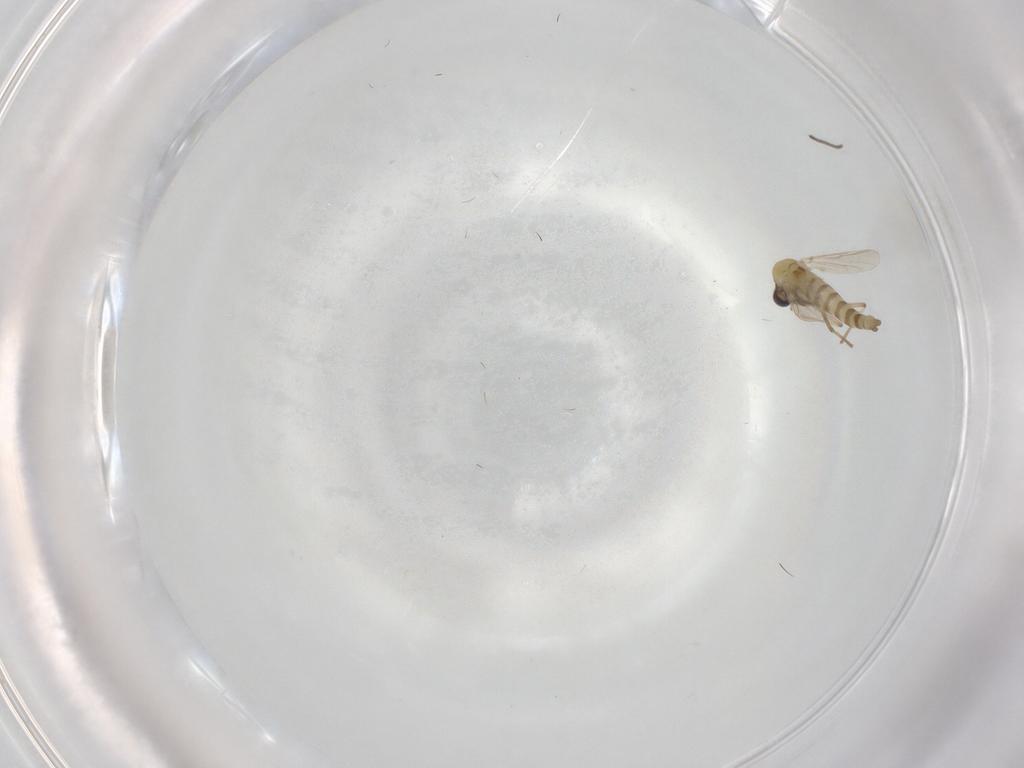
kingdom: Animalia
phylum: Arthropoda
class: Insecta
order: Diptera
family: Chironomidae
